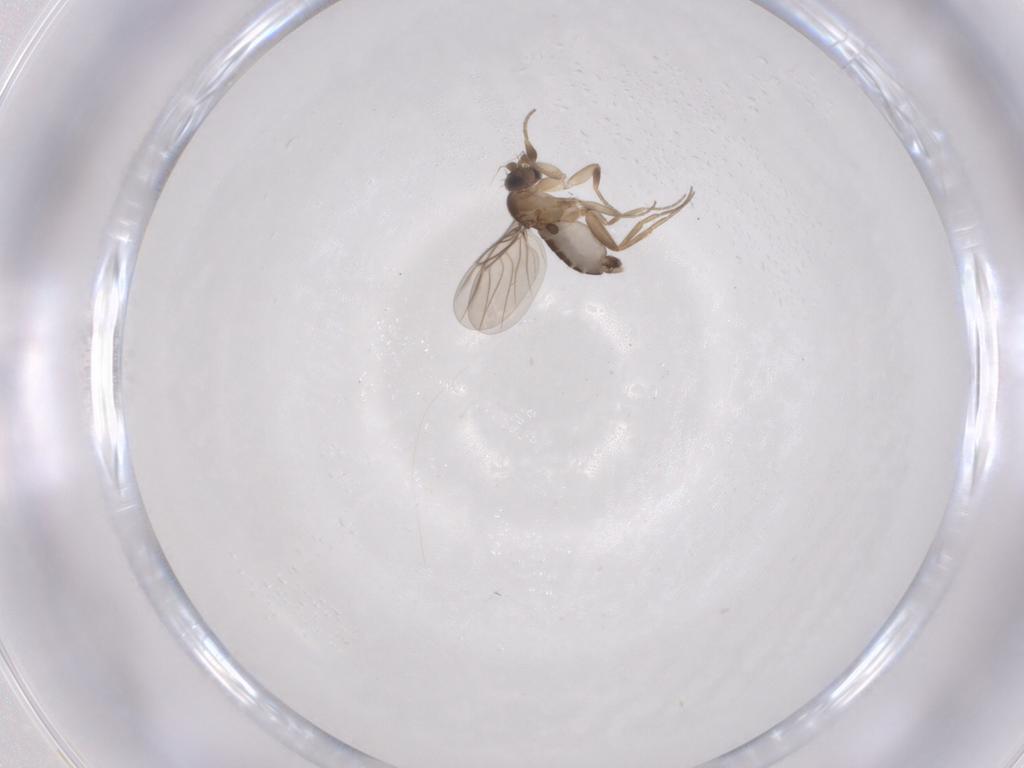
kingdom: Animalia
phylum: Arthropoda
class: Insecta
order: Diptera
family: Phoridae
